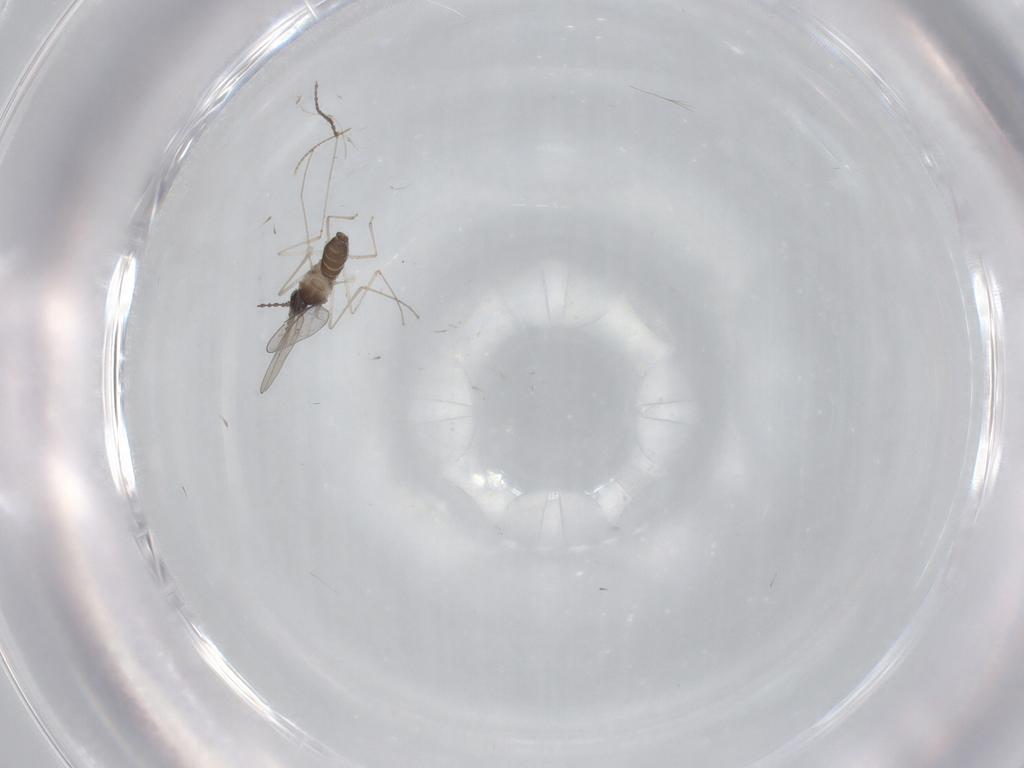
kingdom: Animalia
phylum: Arthropoda
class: Insecta
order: Diptera
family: Cecidomyiidae
